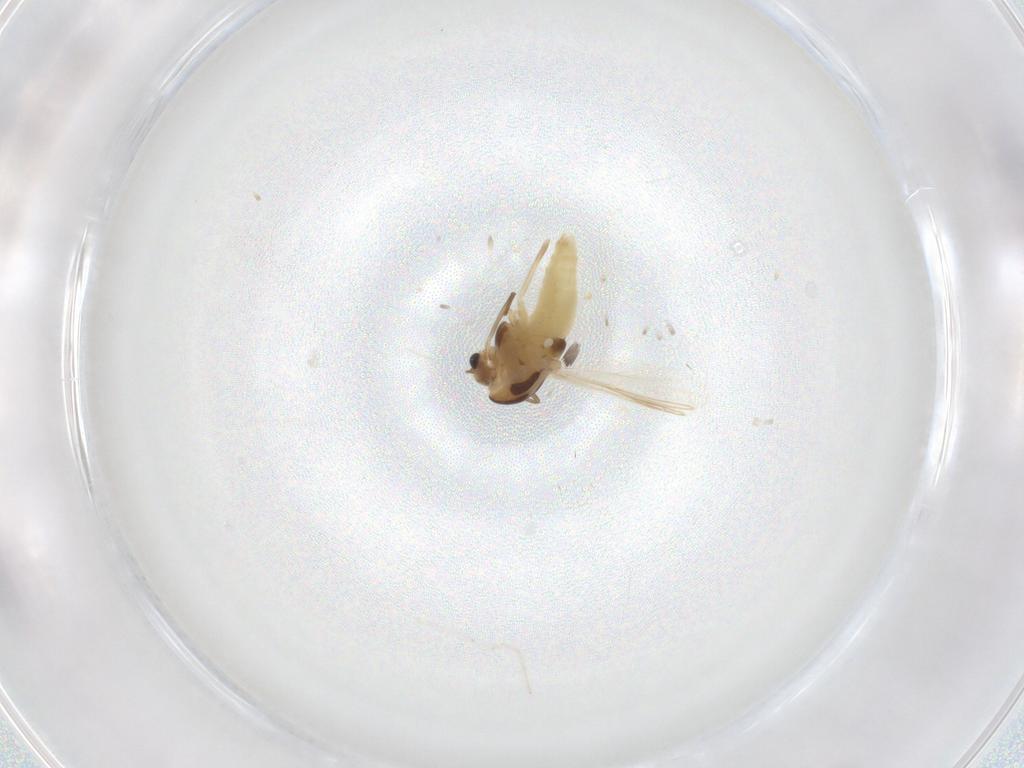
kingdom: Animalia
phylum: Arthropoda
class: Insecta
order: Diptera
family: Chironomidae
